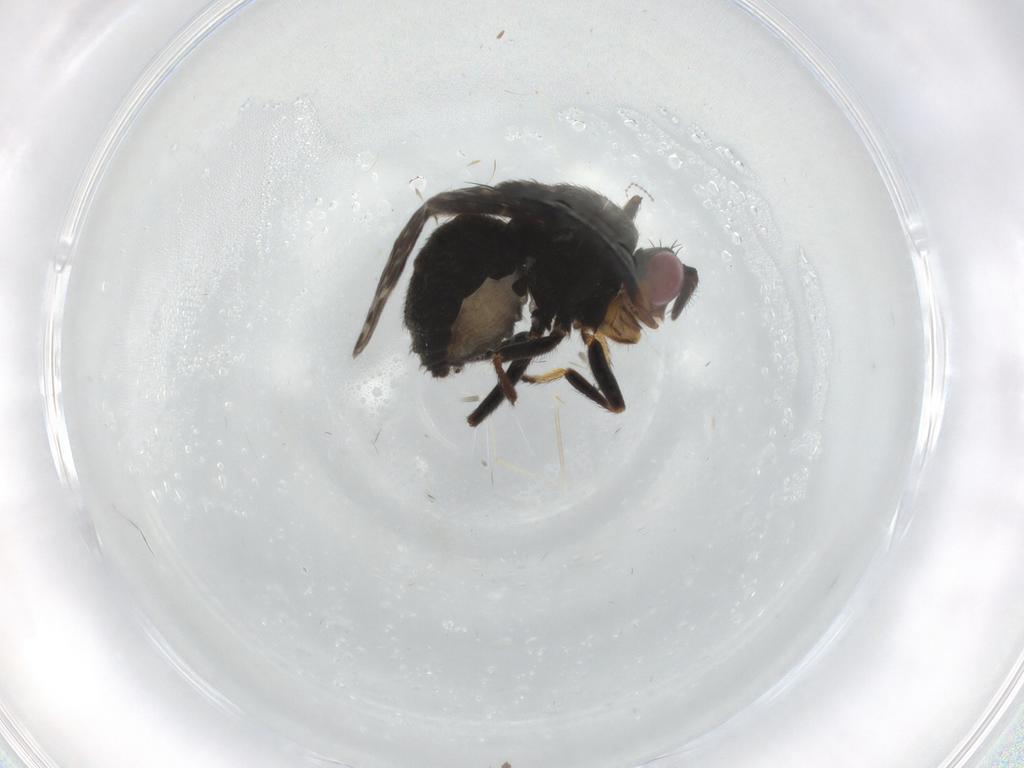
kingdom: Animalia
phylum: Arthropoda
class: Insecta
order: Diptera
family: Ephydridae
